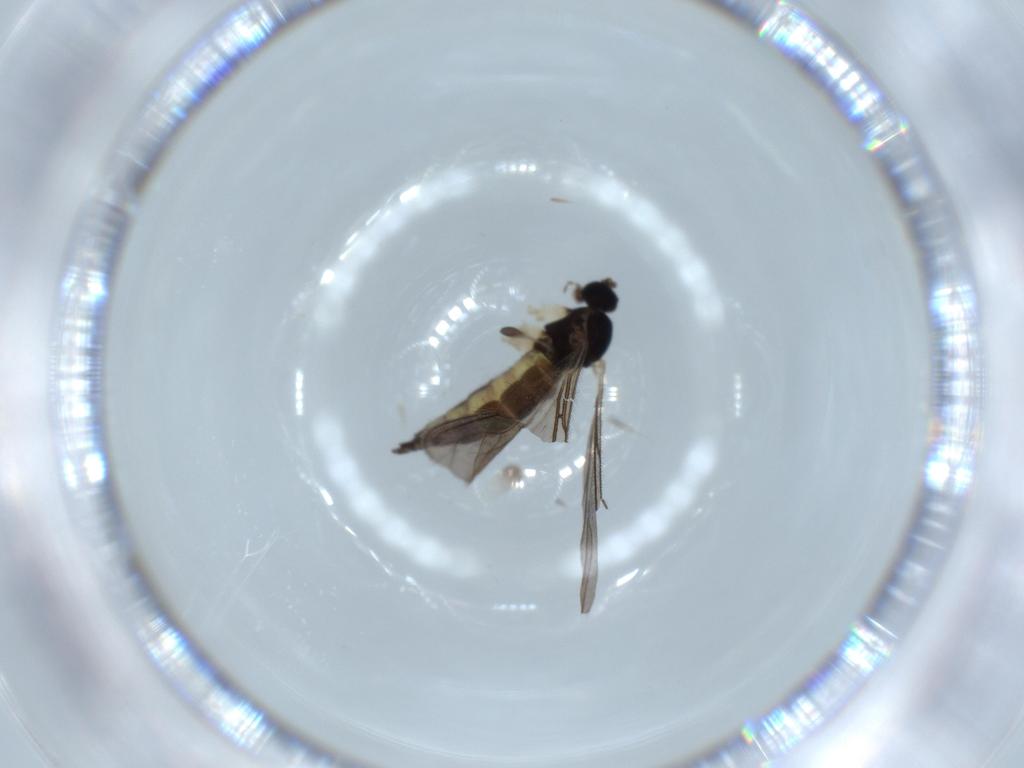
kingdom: Animalia
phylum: Arthropoda
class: Insecta
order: Diptera
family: Sciaridae
